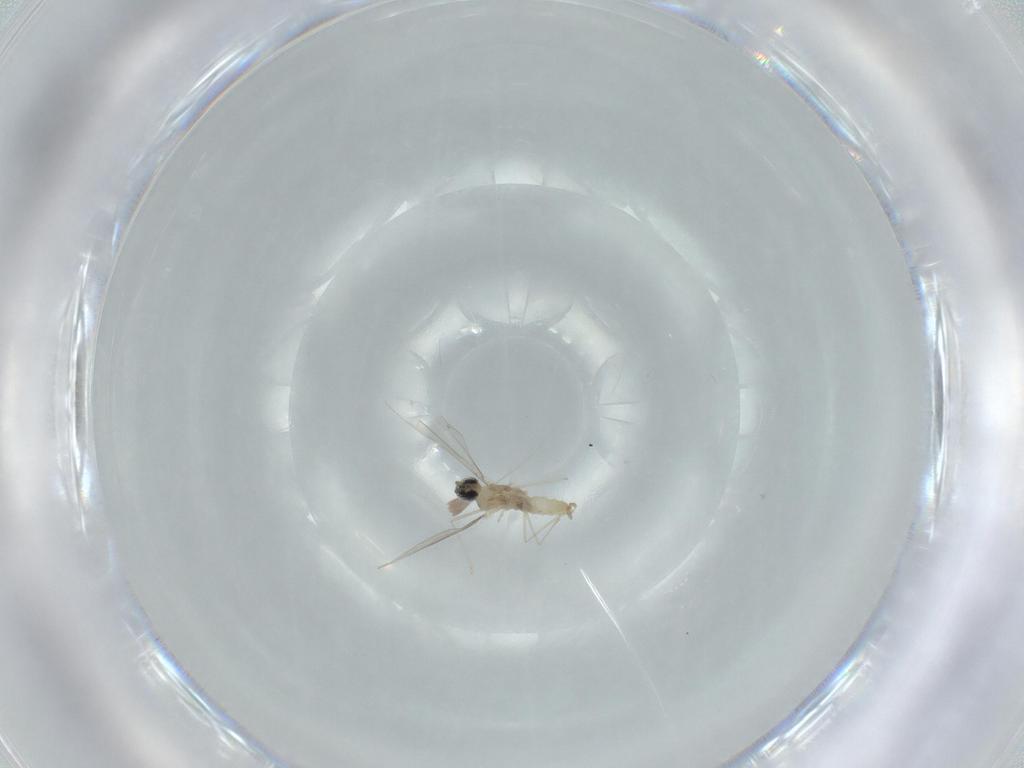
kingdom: Animalia
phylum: Arthropoda
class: Insecta
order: Diptera
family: Cecidomyiidae
